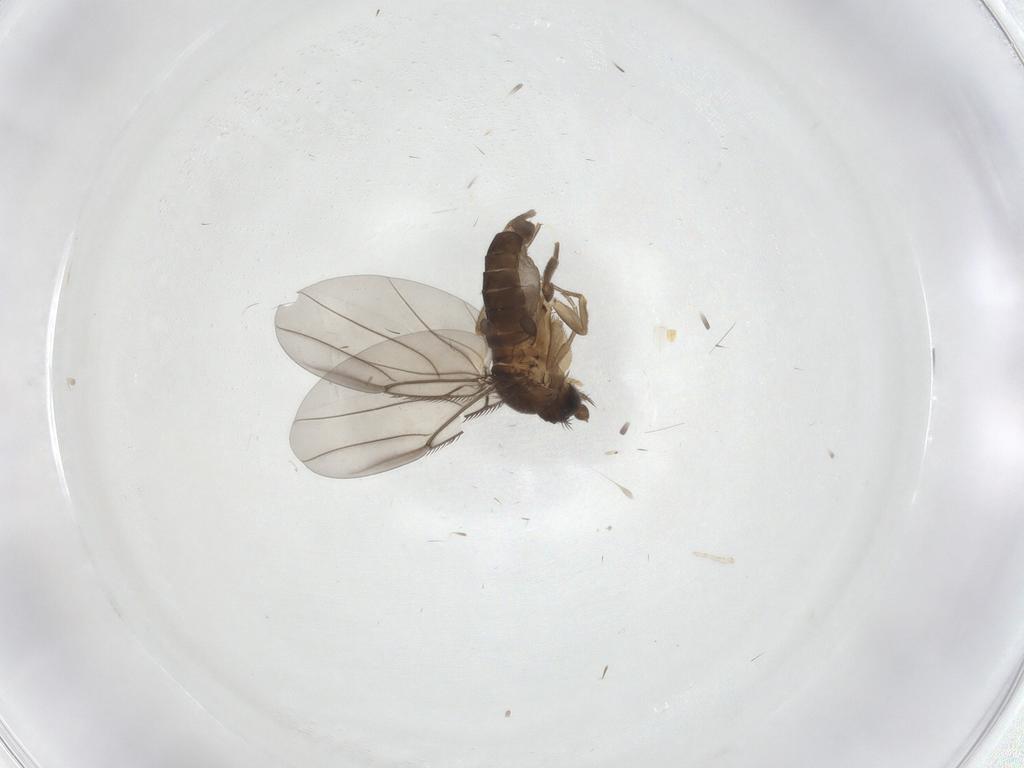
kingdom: Animalia
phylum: Arthropoda
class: Insecta
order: Diptera
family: Phoridae
